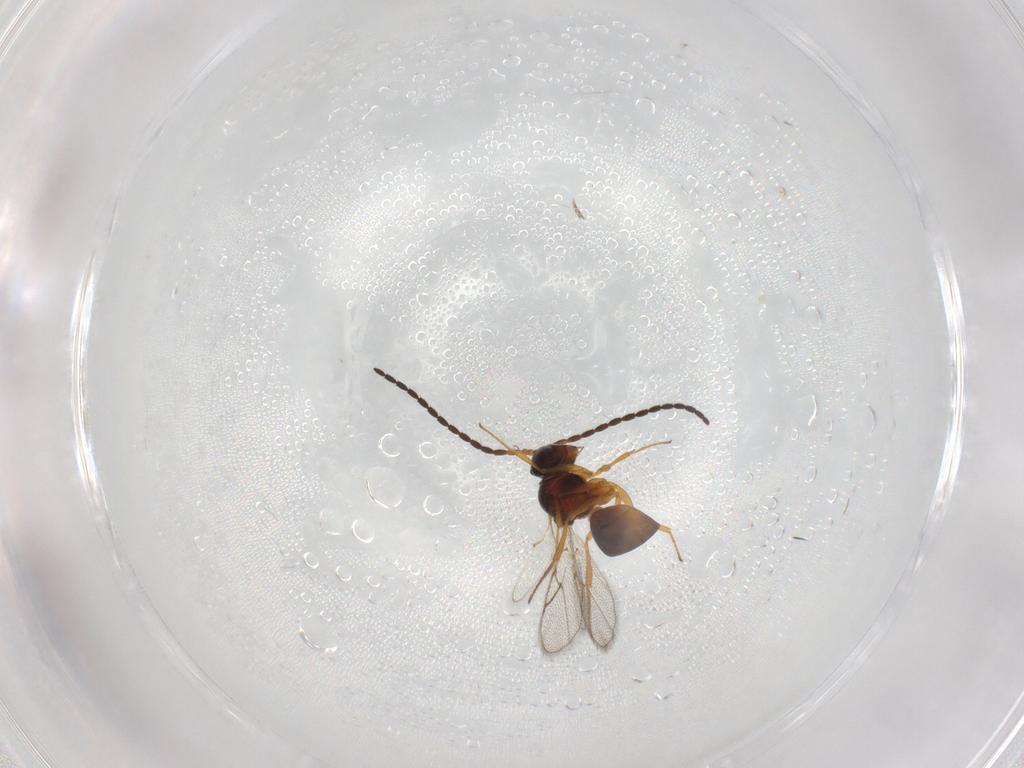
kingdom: Animalia
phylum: Arthropoda
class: Insecta
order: Hymenoptera
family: Figitidae
